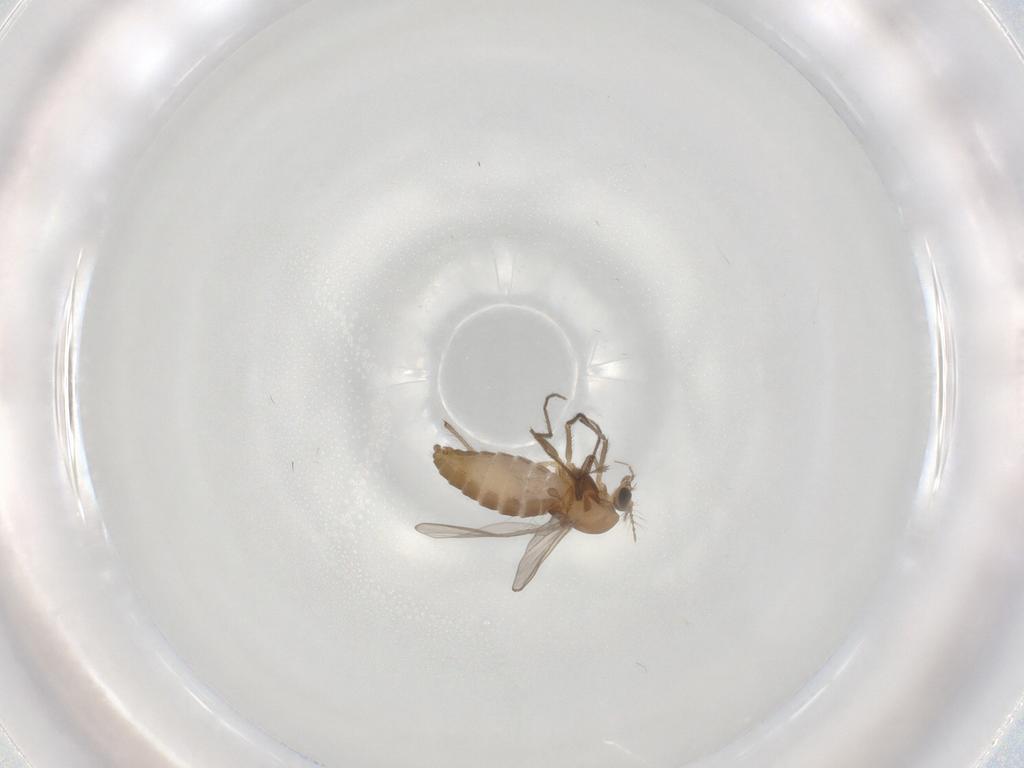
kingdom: Animalia
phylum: Arthropoda
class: Insecta
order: Diptera
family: Chironomidae
